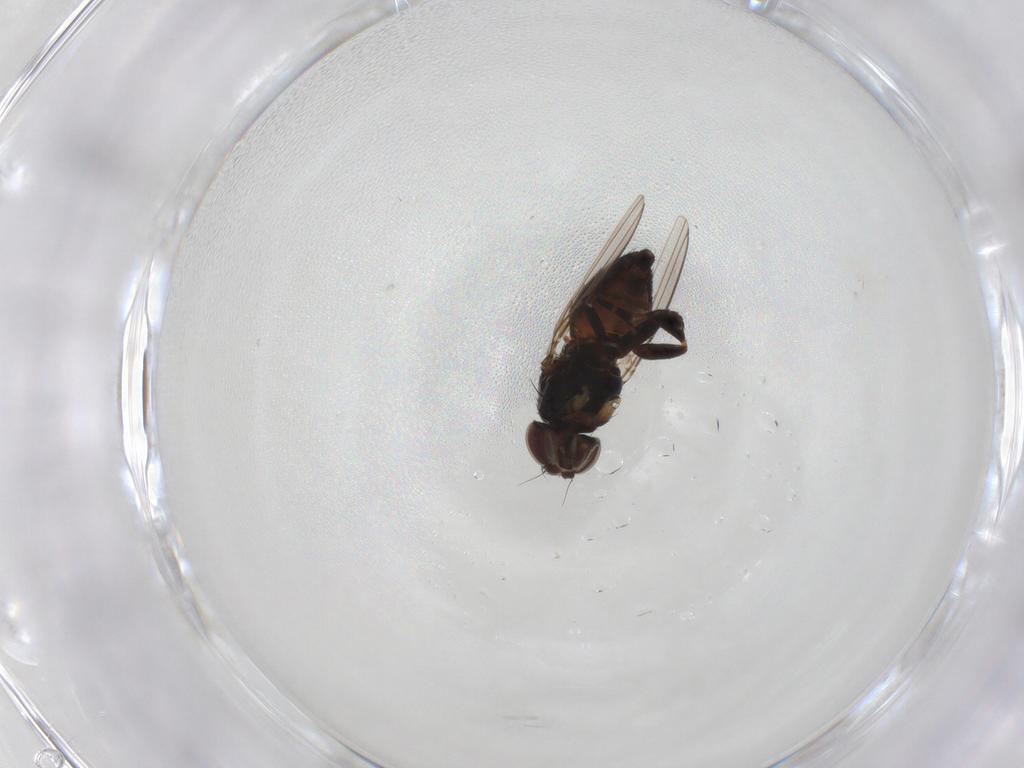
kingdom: Animalia
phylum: Arthropoda
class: Insecta
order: Diptera
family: Milichiidae
